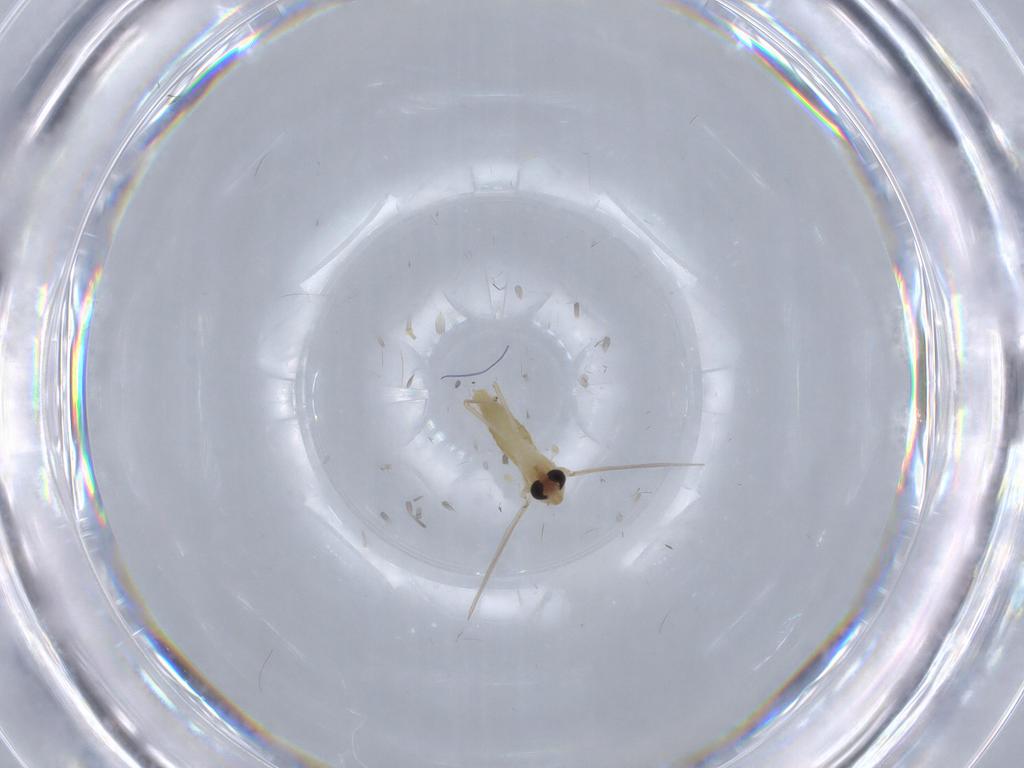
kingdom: Animalia
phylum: Arthropoda
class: Insecta
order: Diptera
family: Chironomidae
